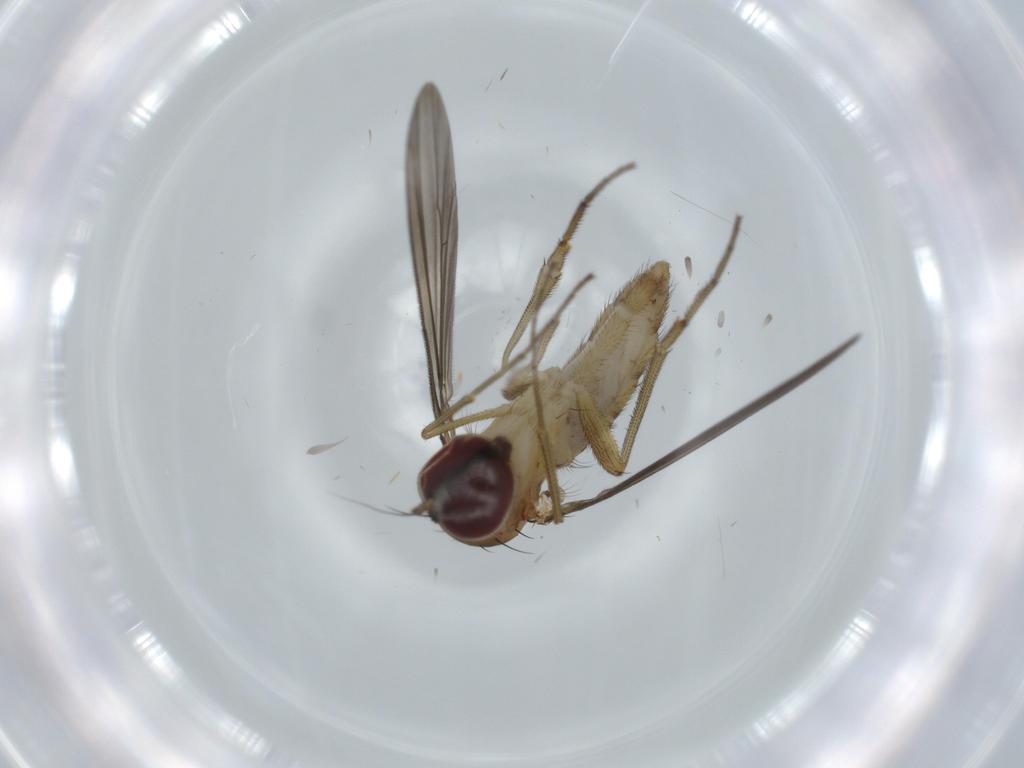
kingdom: Animalia
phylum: Arthropoda
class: Insecta
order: Diptera
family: Dolichopodidae
